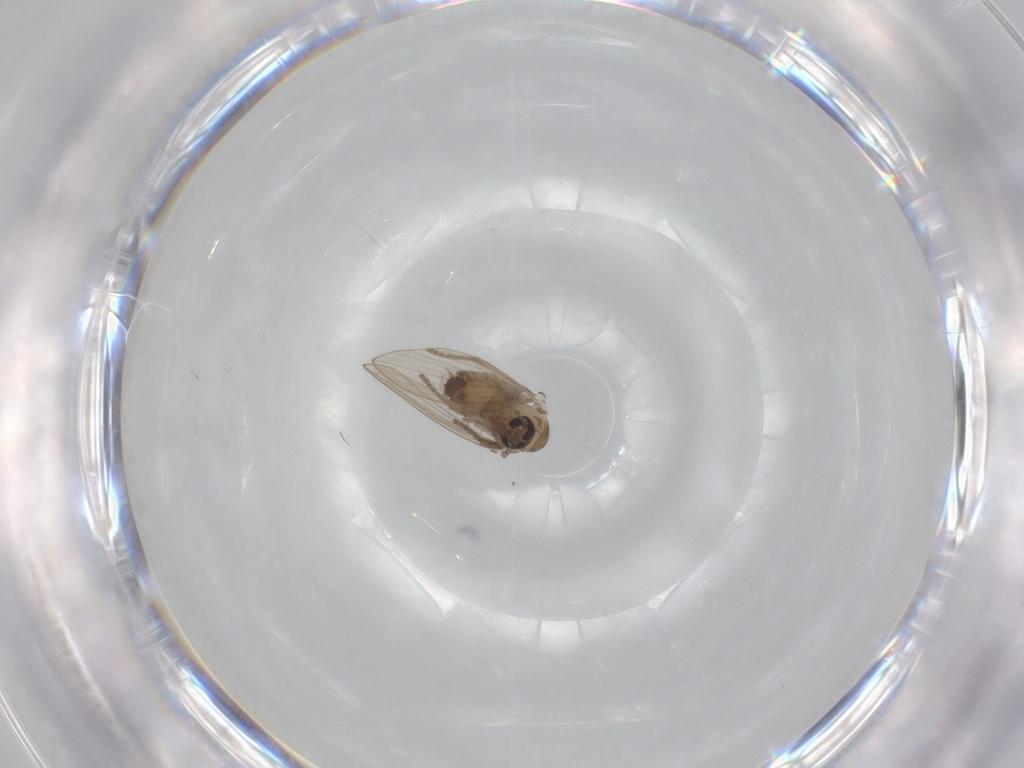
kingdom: Animalia
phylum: Arthropoda
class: Insecta
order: Diptera
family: Psychodidae
